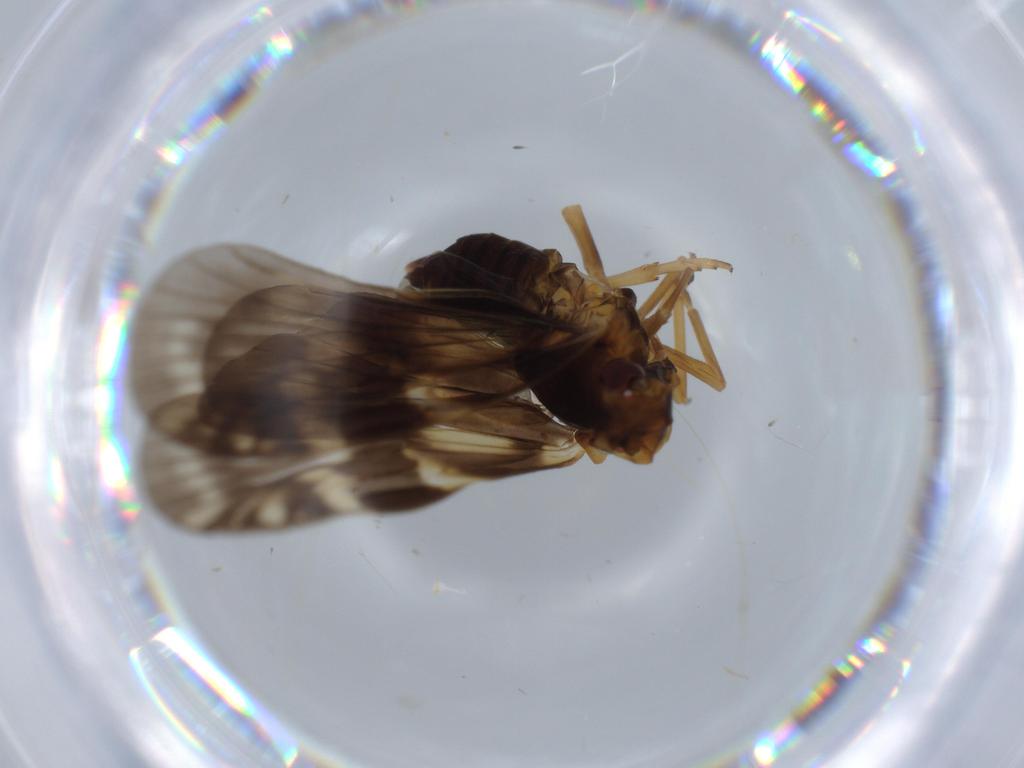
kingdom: Animalia
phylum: Arthropoda
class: Insecta
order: Hemiptera
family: Cixiidae
